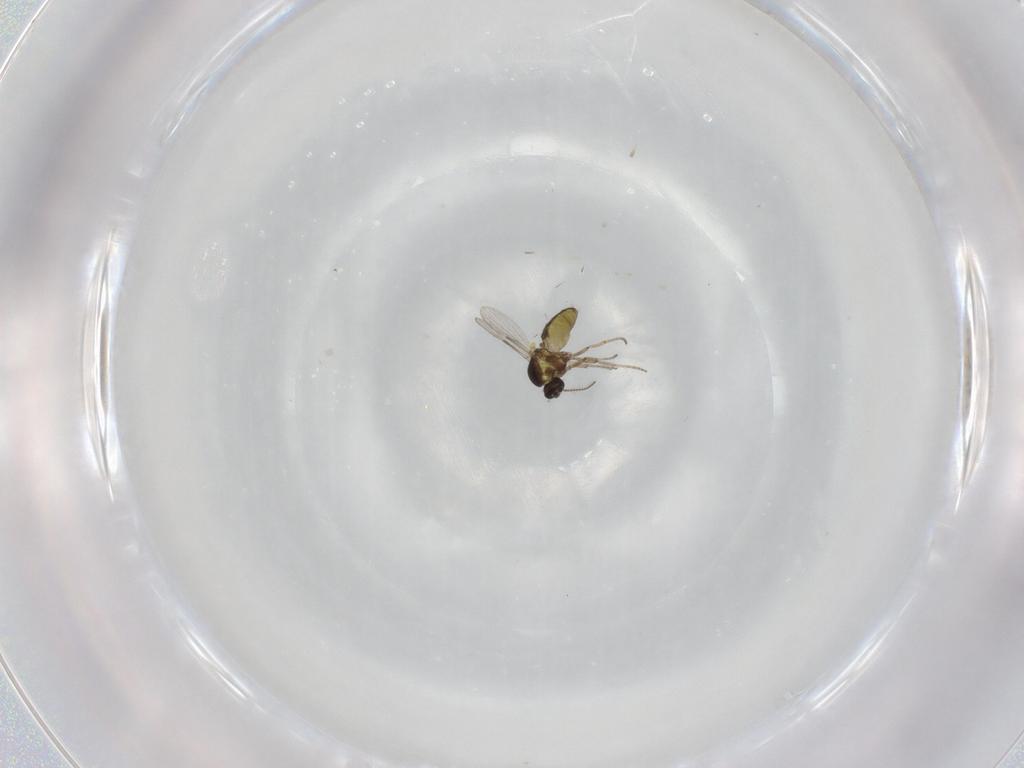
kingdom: Animalia
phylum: Arthropoda
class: Insecta
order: Diptera
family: Ceratopogonidae
